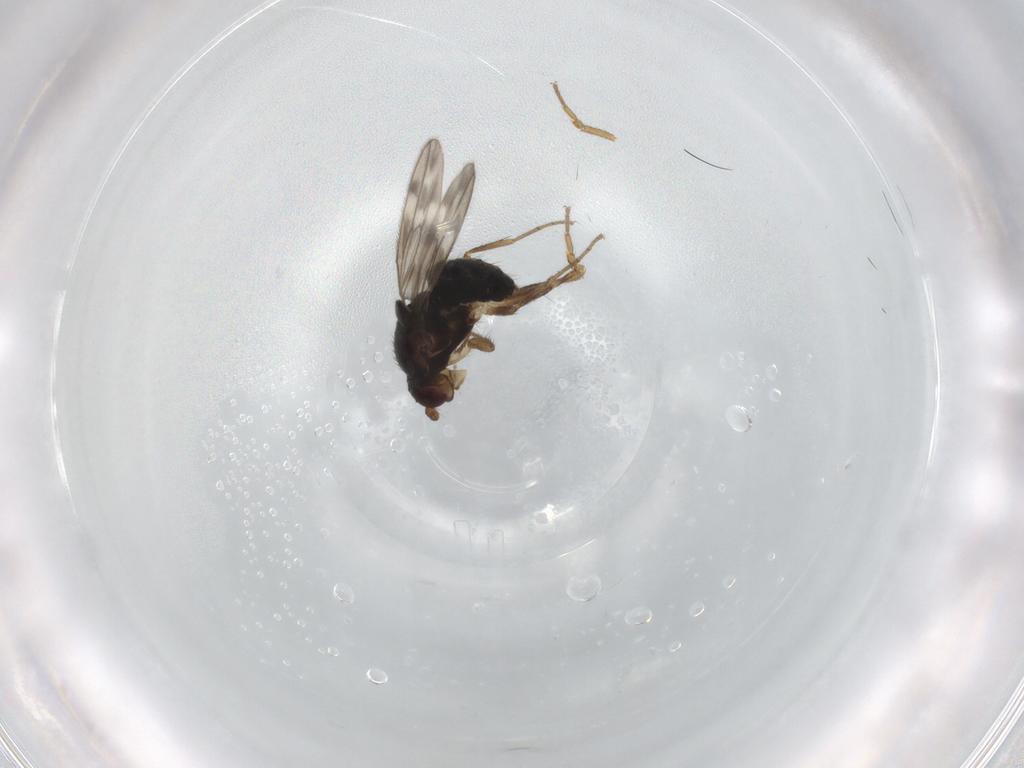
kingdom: Animalia
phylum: Arthropoda
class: Insecta
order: Diptera
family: Sphaeroceridae
